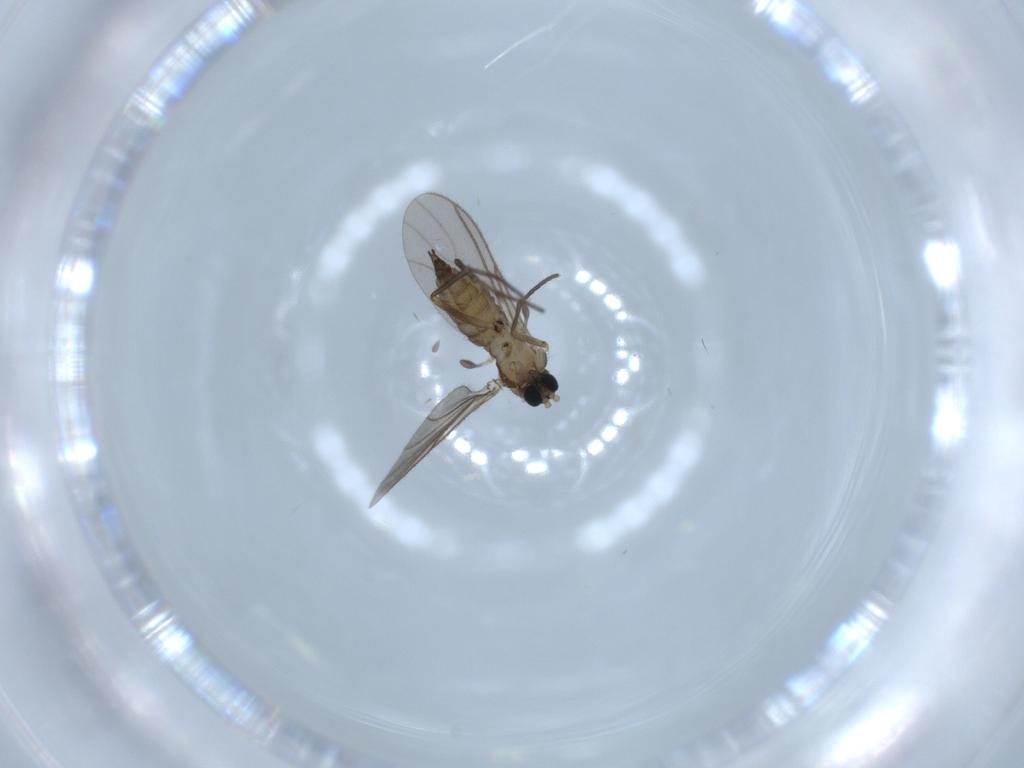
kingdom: Animalia
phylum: Arthropoda
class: Insecta
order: Diptera
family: Sciaridae
